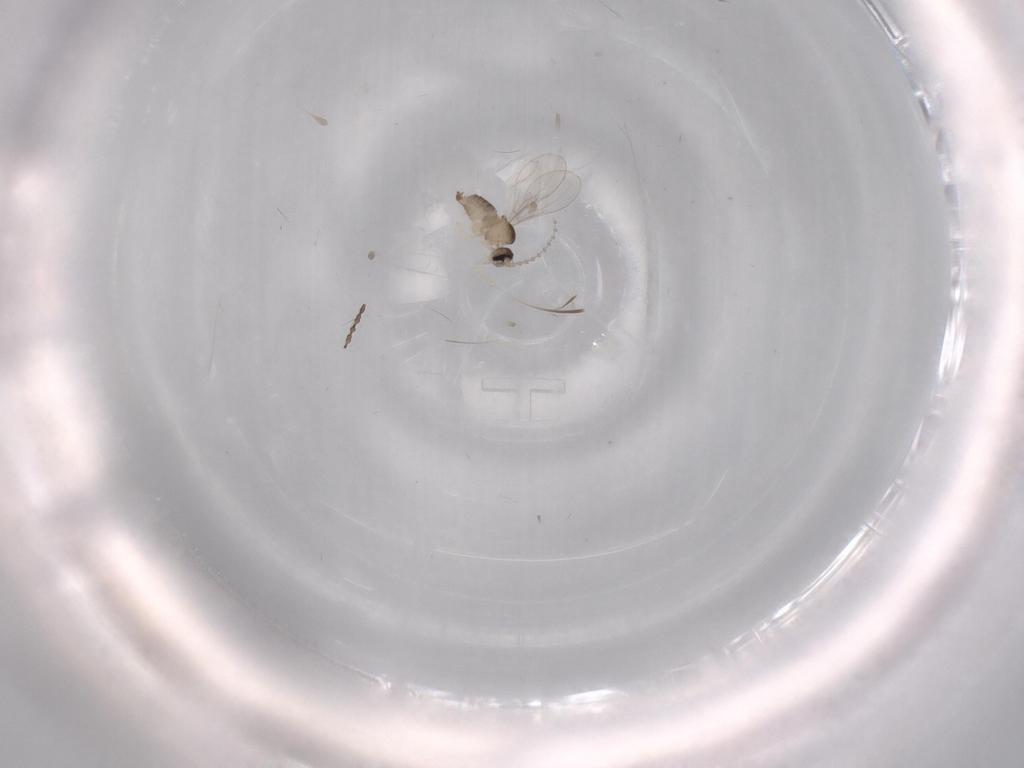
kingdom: Animalia
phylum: Arthropoda
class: Insecta
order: Diptera
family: Cecidomyiidae
